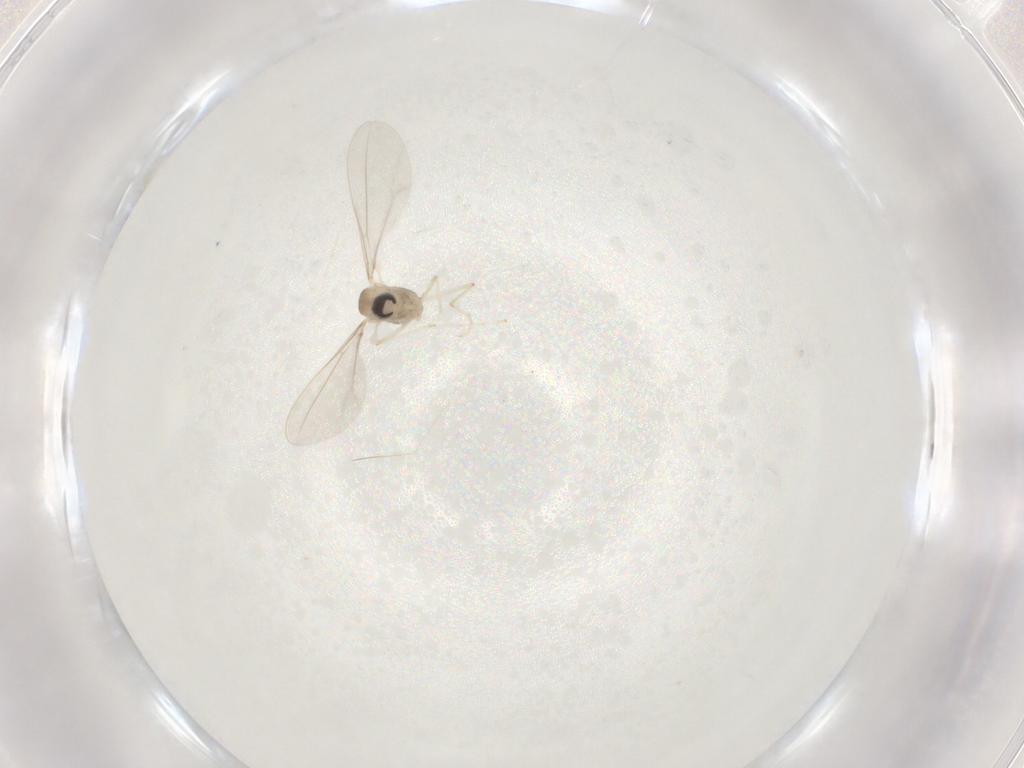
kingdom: Animalia
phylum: Arthropoda
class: Insecta
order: Diptera
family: Cecidomyiidae
